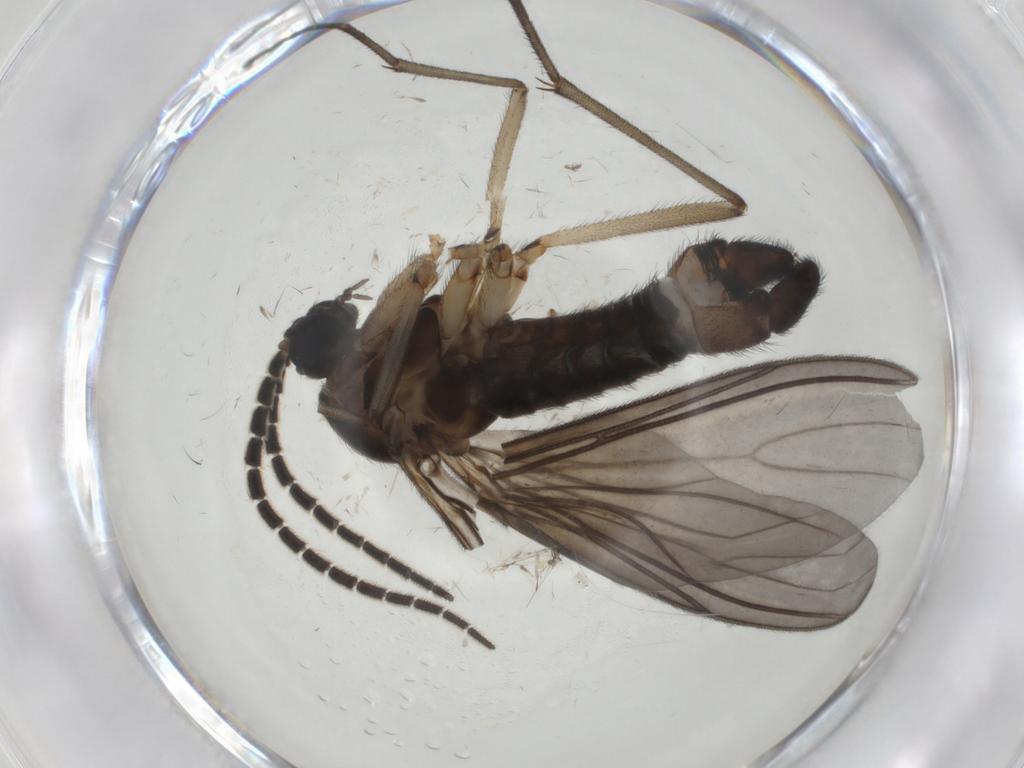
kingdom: Animalia
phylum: Arthropoda
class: Insecta
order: Diptera
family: Sciaridae
